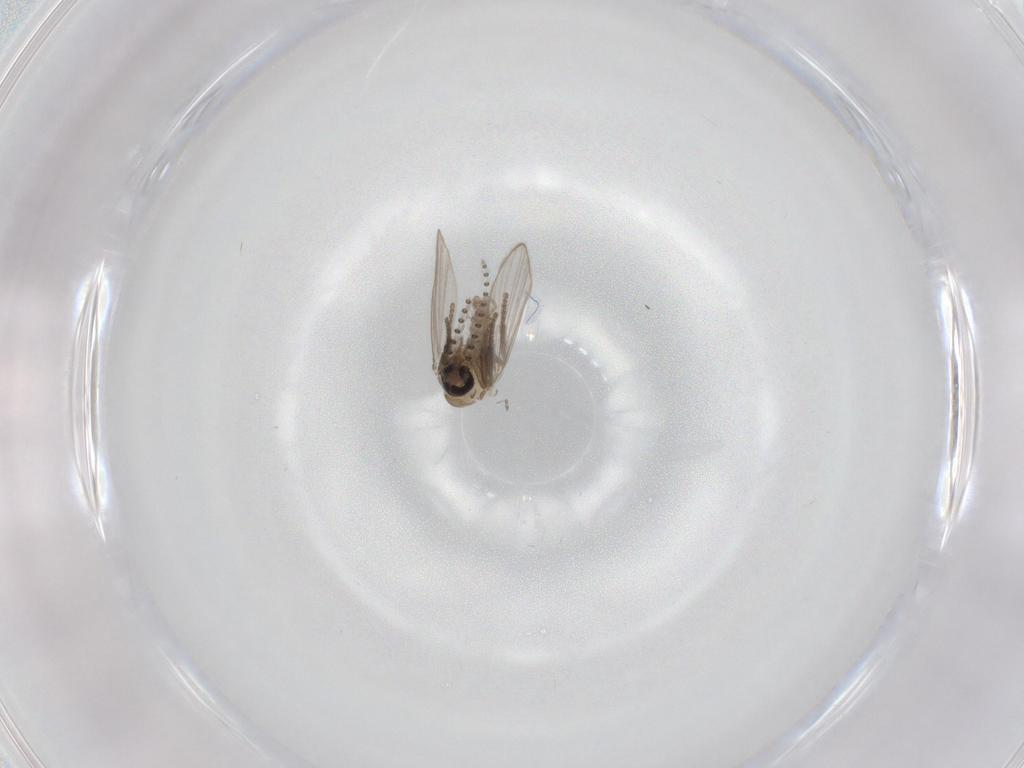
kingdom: Animalia
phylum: Arthropoda
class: Insecta
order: Diptera
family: Psychodidae
